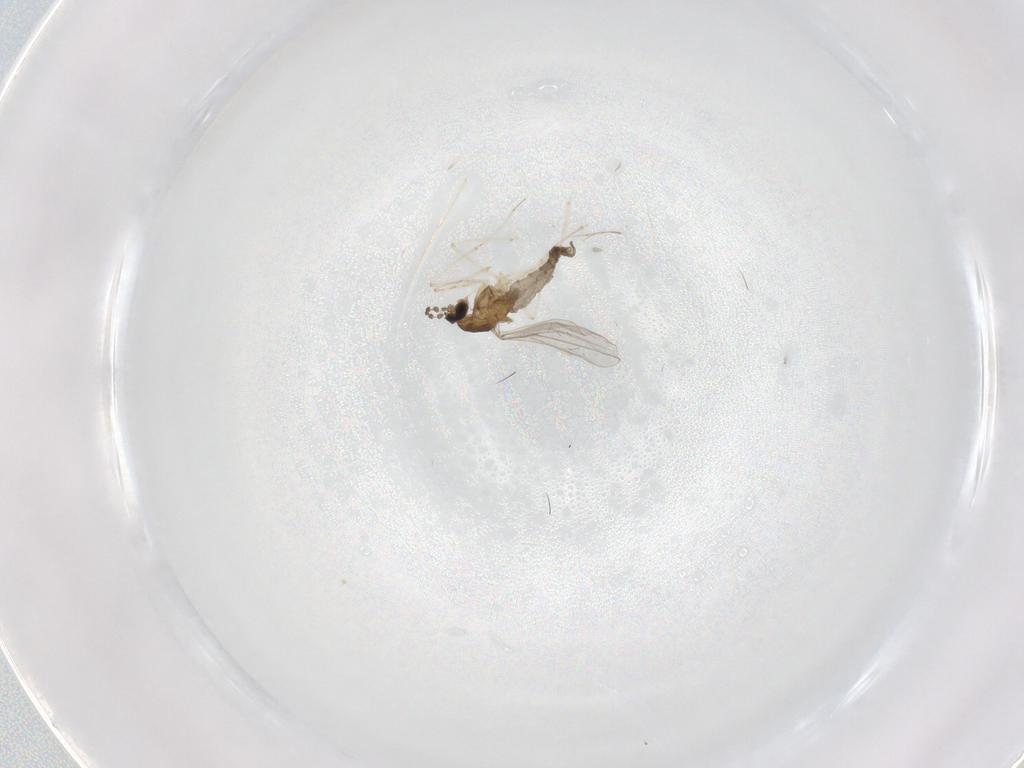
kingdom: Animalia
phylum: Arthropoda
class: Insecta
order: Diptera
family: Cecidomyiidae
